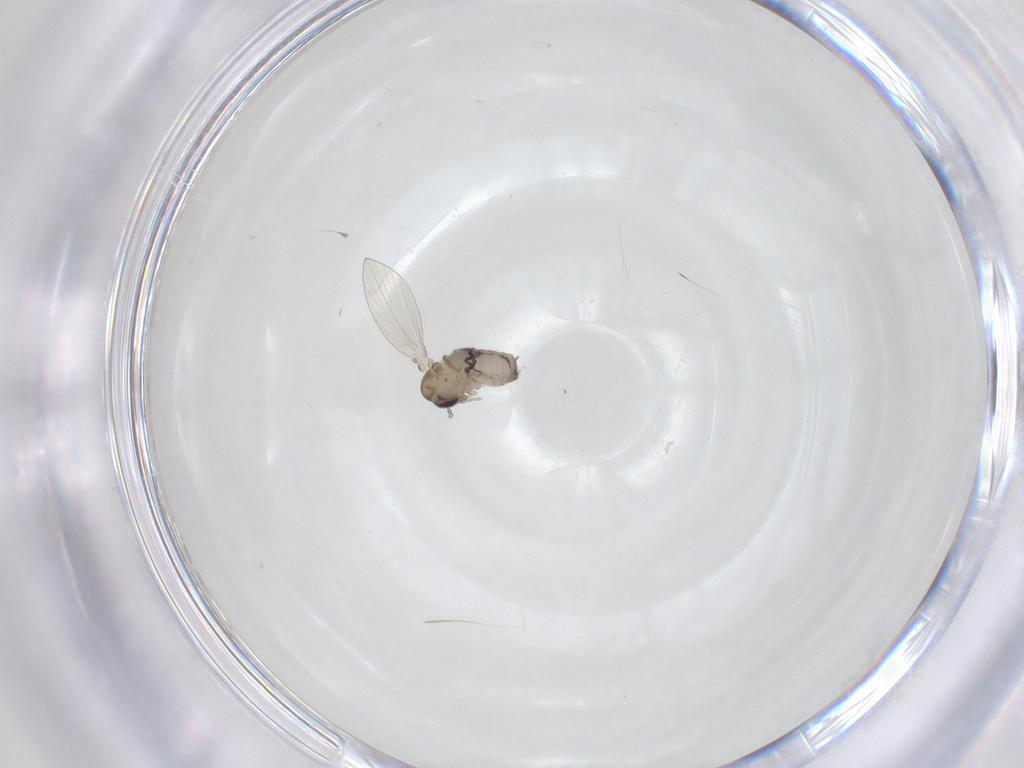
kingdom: Animalia
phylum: Arthropoda
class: Insecta
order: Diptera
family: Psychodidae
